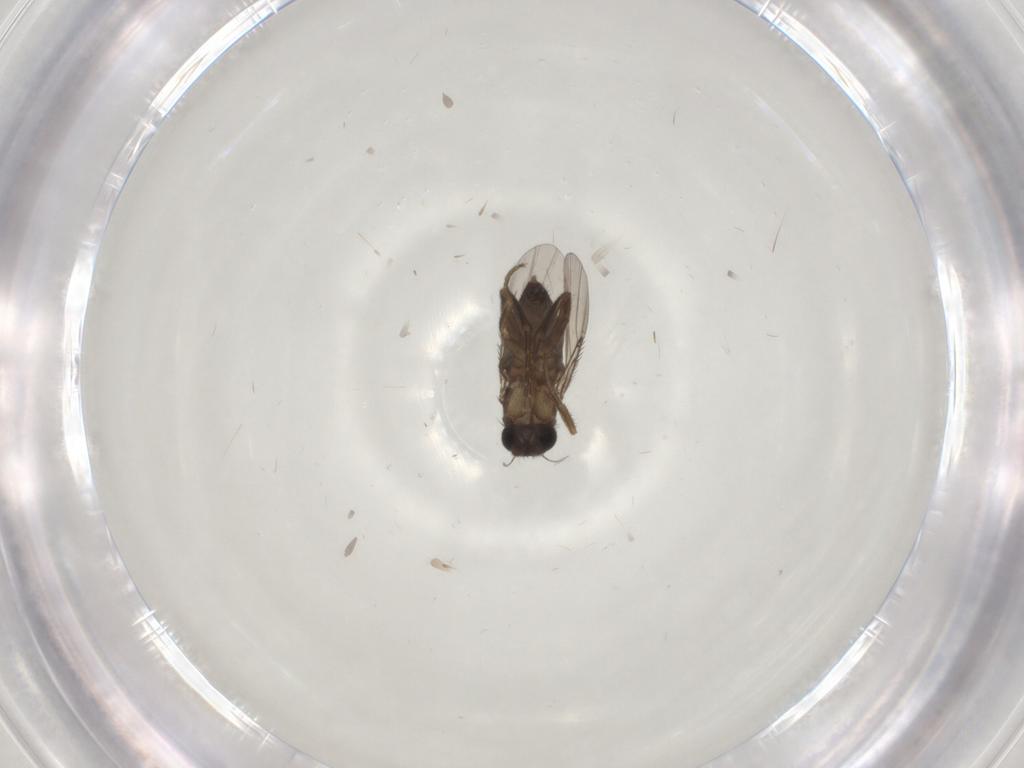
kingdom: Animalia
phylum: Arthropoda
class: Insecta
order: Diptera
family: Phoridae
